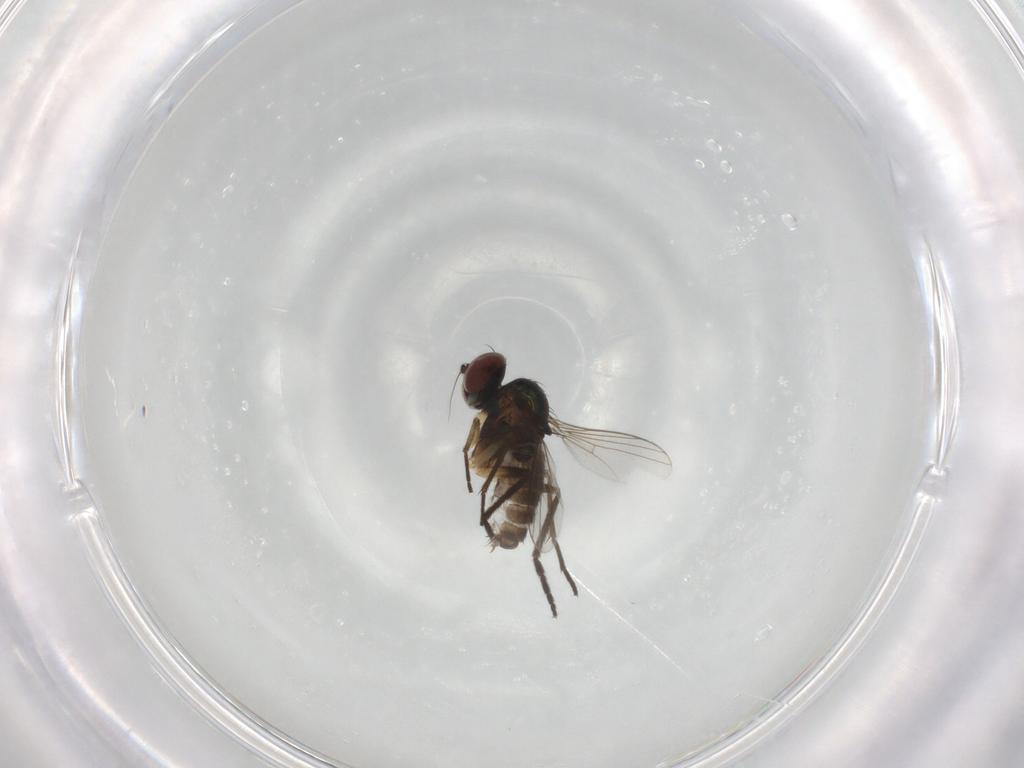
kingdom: Animalia
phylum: Arthropoda
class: Insecta
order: Diptera
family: Dolichopodidae
